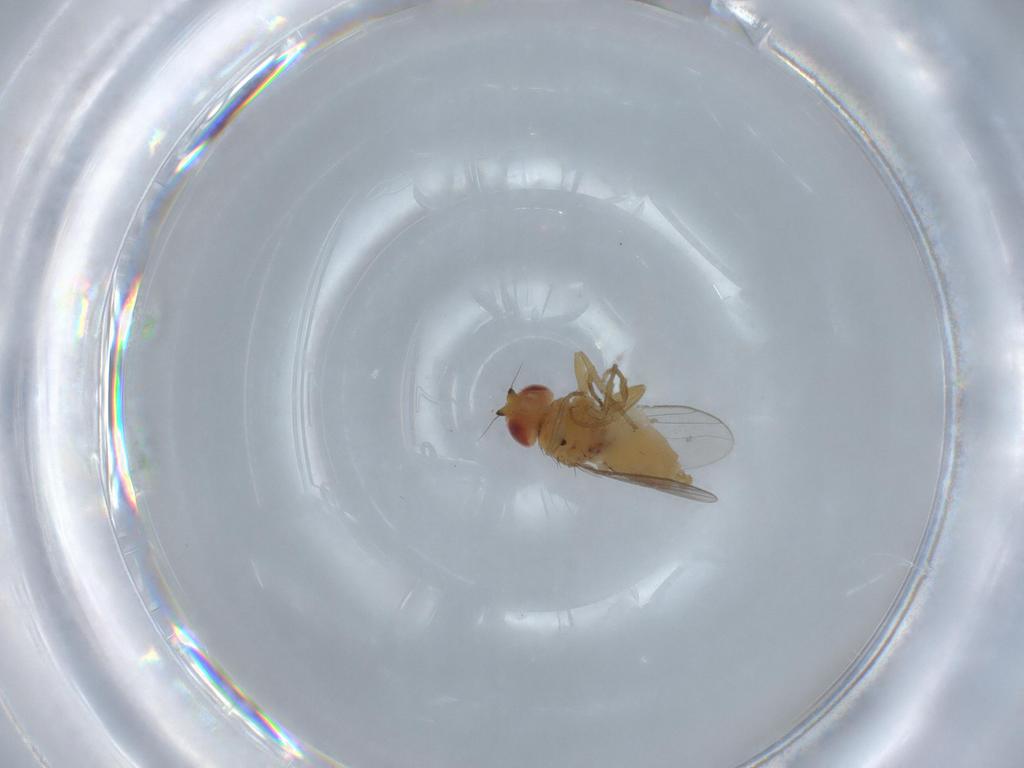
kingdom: Animalia
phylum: Arthropoda
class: Insecta
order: Diptera
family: Chloropidae
